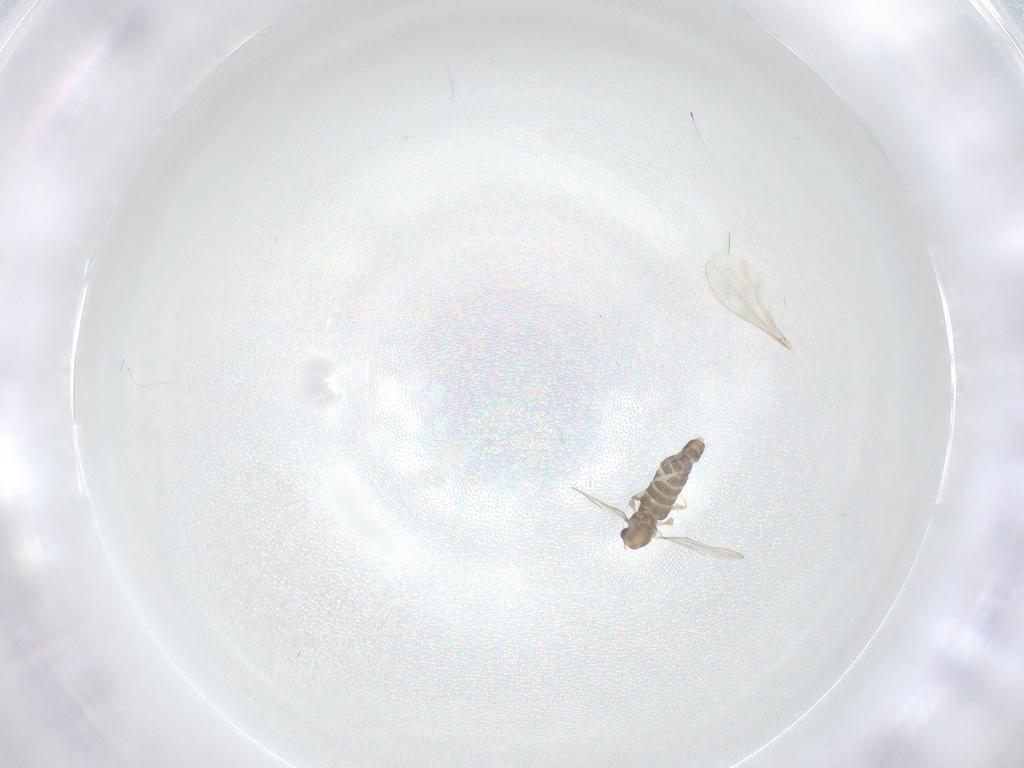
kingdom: Animalia
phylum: Arthropoda
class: Insecta
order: Diptera
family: Chironomidae
